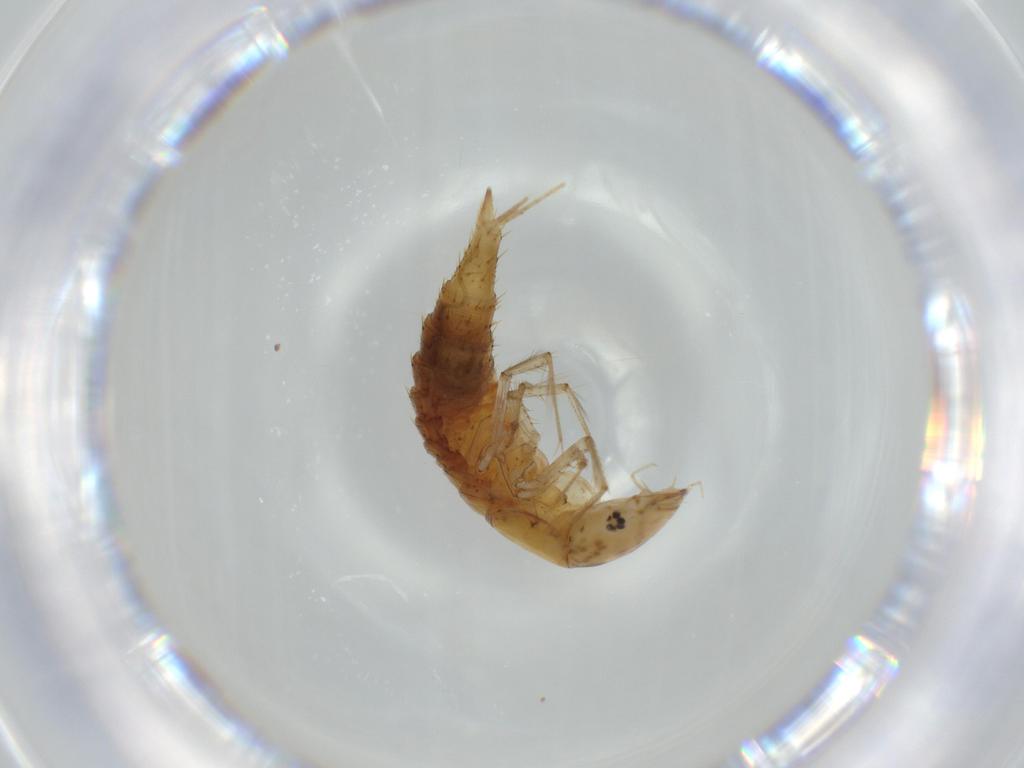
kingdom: Animalia
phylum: Arthropoda
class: Insecta
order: Coleoptera
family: Dytiscidae
